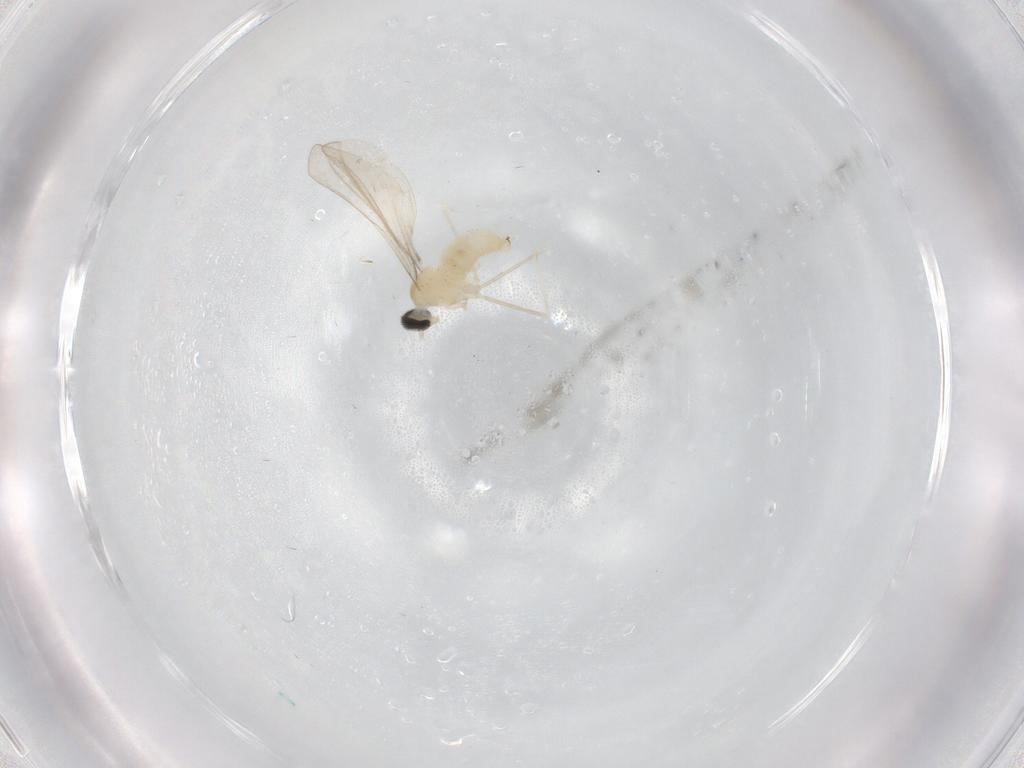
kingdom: Animalia
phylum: Arthropoda
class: Insecta
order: Diptera
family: Cecidomyiidae
